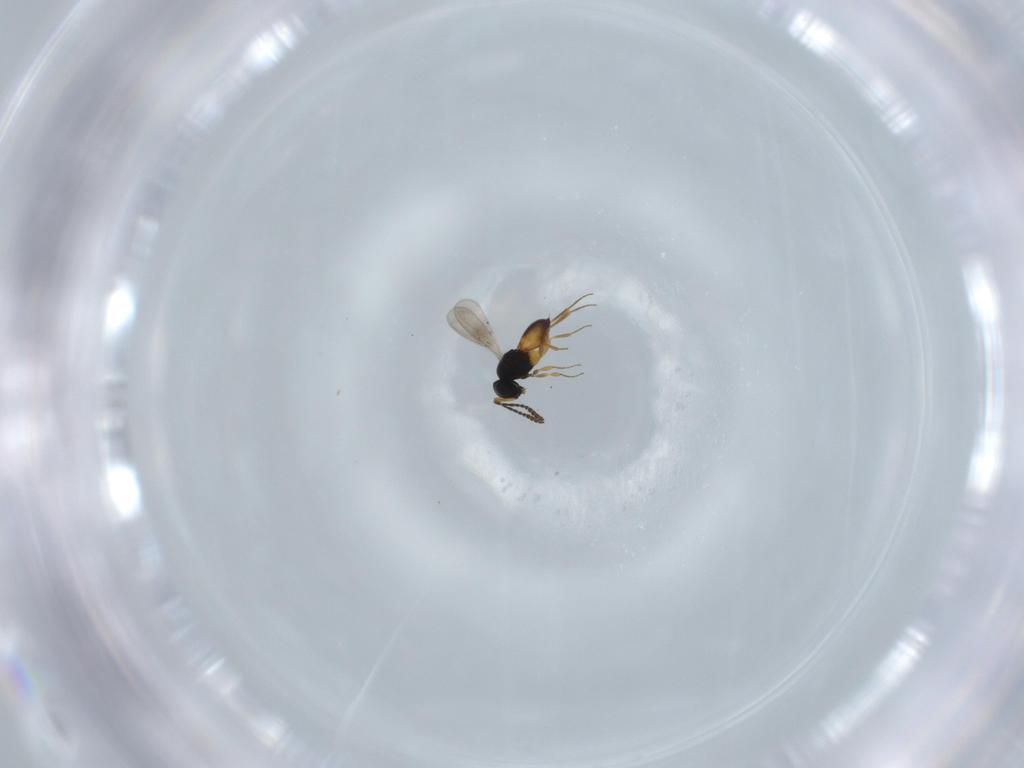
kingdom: Animalia
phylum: Arthropoda
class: Insecta
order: Hymenoptera
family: Scelionidae
